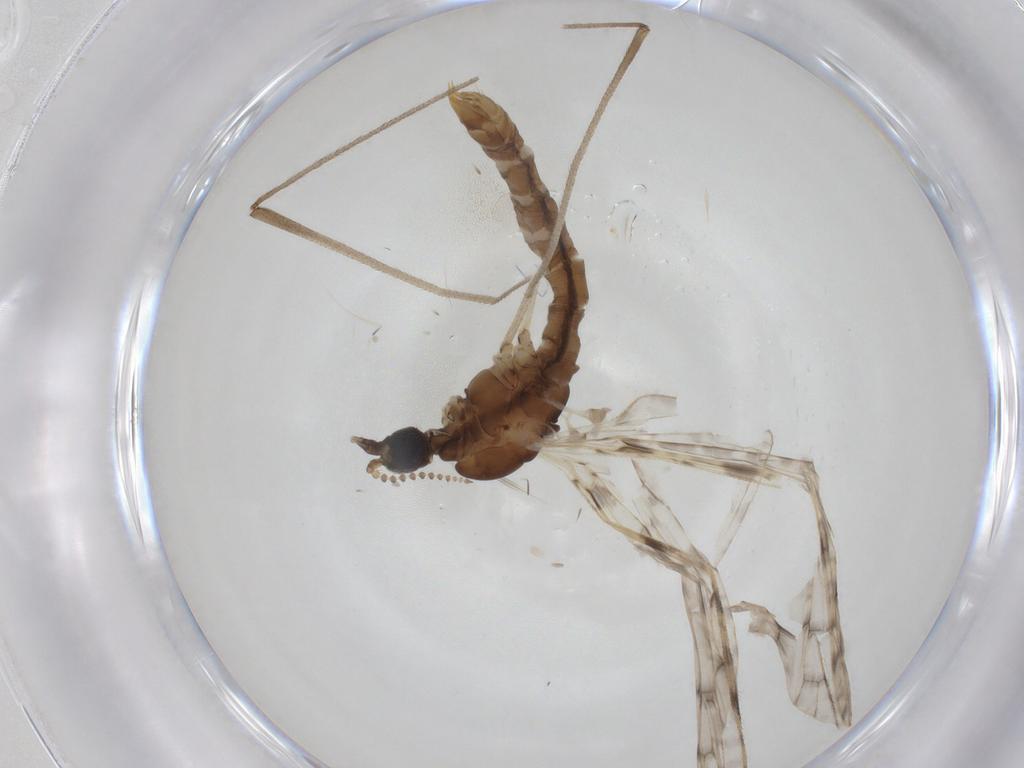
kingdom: Animalia
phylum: Arthropoda
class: Insecta
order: Diptera
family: Limoniidae
